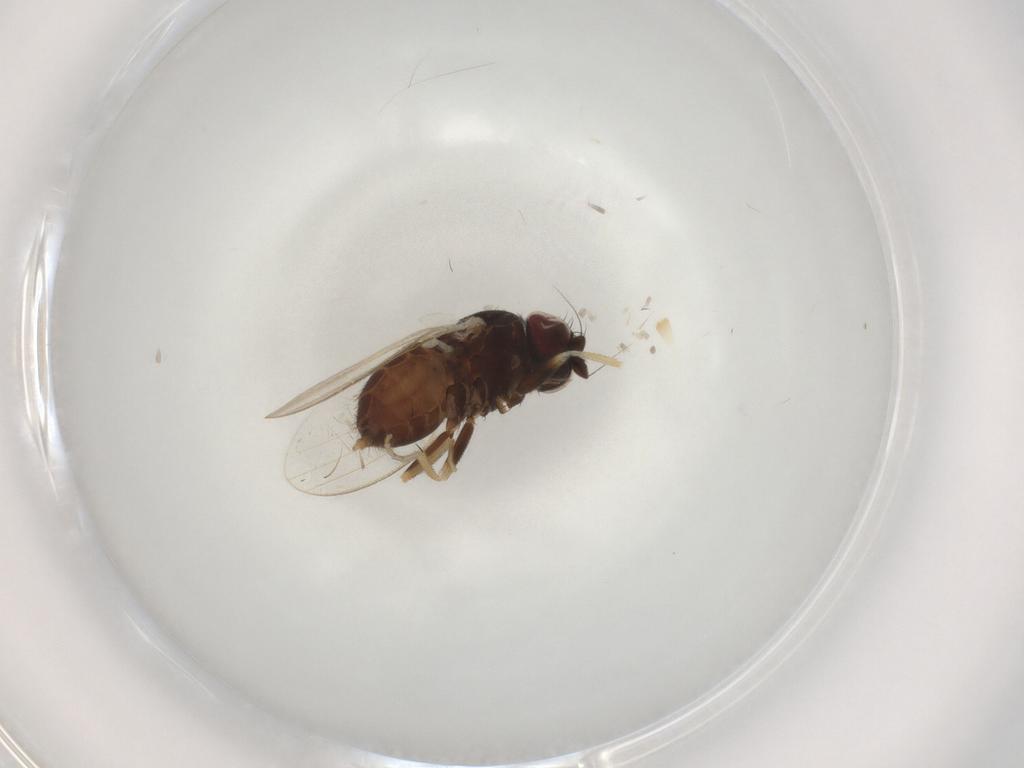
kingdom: Animalia
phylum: Arthropoda
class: Insecta
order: Diptera
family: Milichiidae
